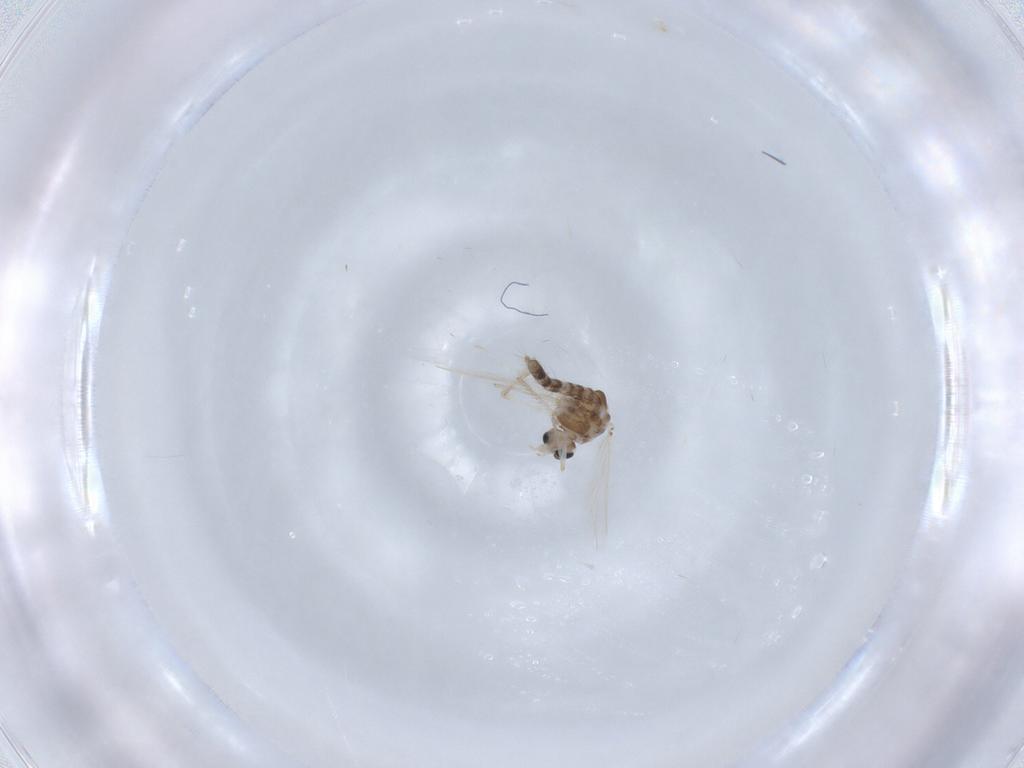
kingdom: Animalia
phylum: Arthropoda
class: Insecta
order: Diptera
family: Chironomidae
